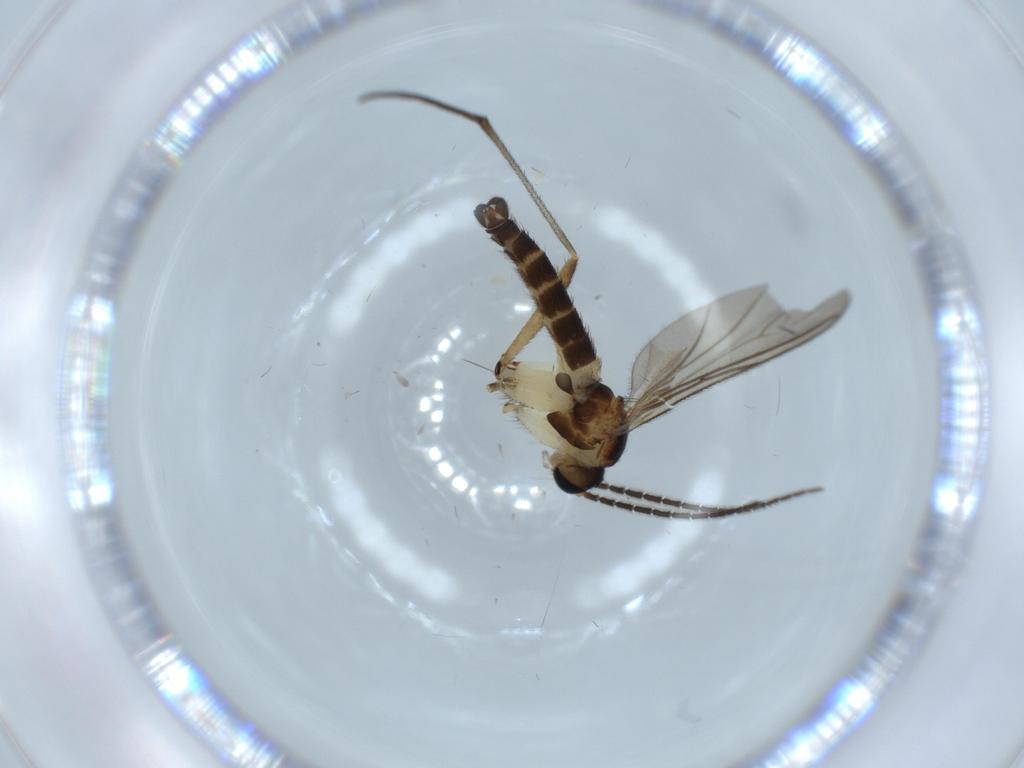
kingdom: Animalia
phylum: Arthropoda
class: Insecta
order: Diptera
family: Sciaridae
